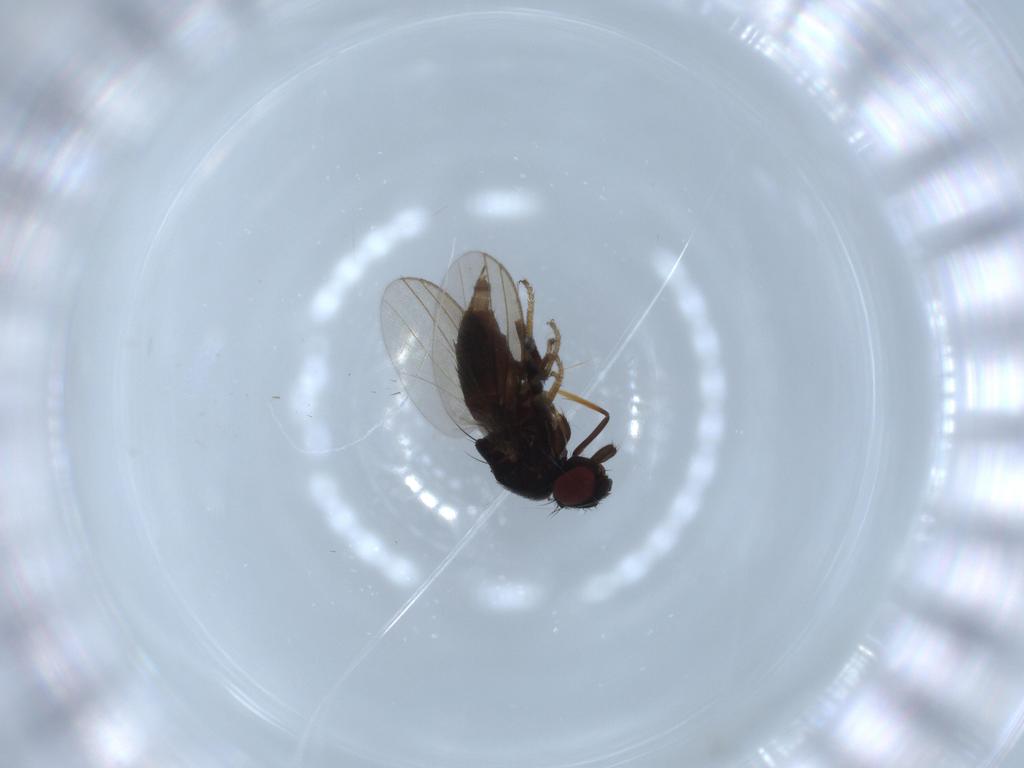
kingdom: Animalia
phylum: Arthropoda
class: Insecta
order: Diptera
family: Milichiidae
